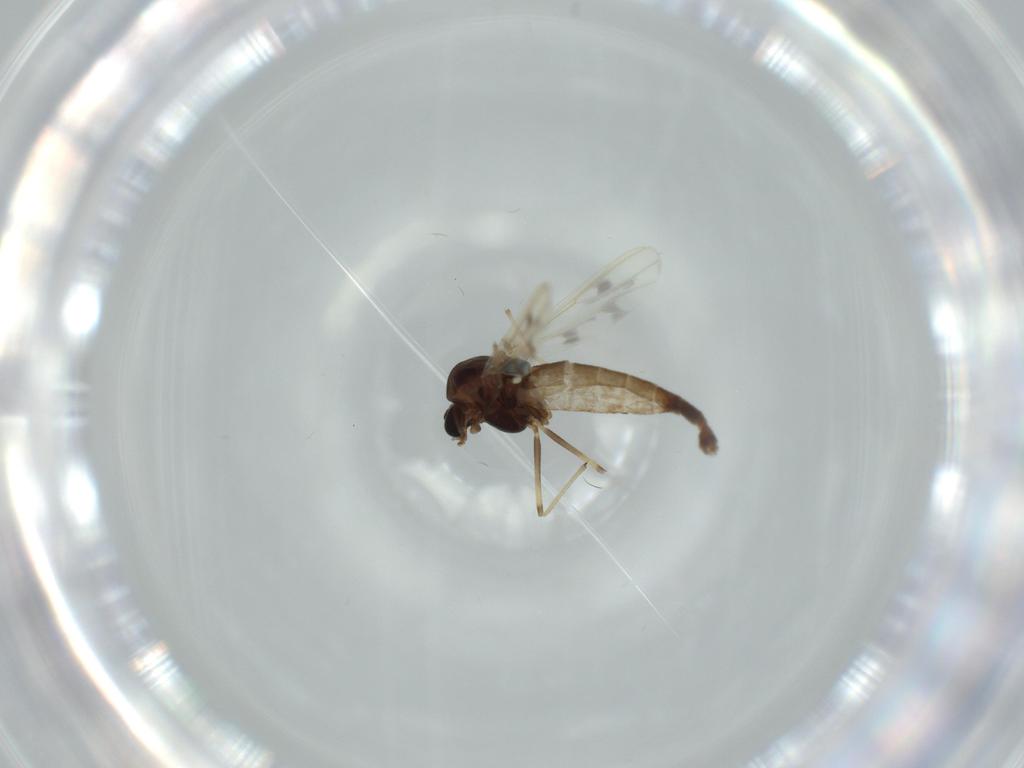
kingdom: Animalia
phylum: Arthropoda
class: Insecta
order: Diptera
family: Chironomidae
